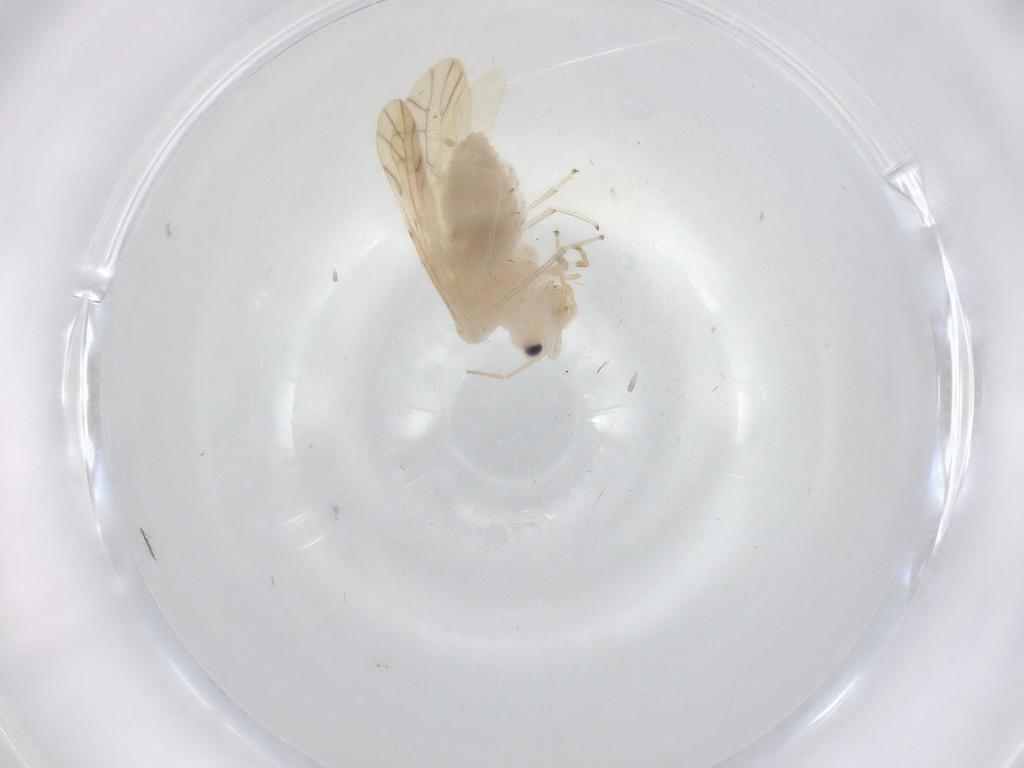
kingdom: Animalia
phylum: Arthropoda
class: Insecta
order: Psocodea
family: Caeciliusidae
